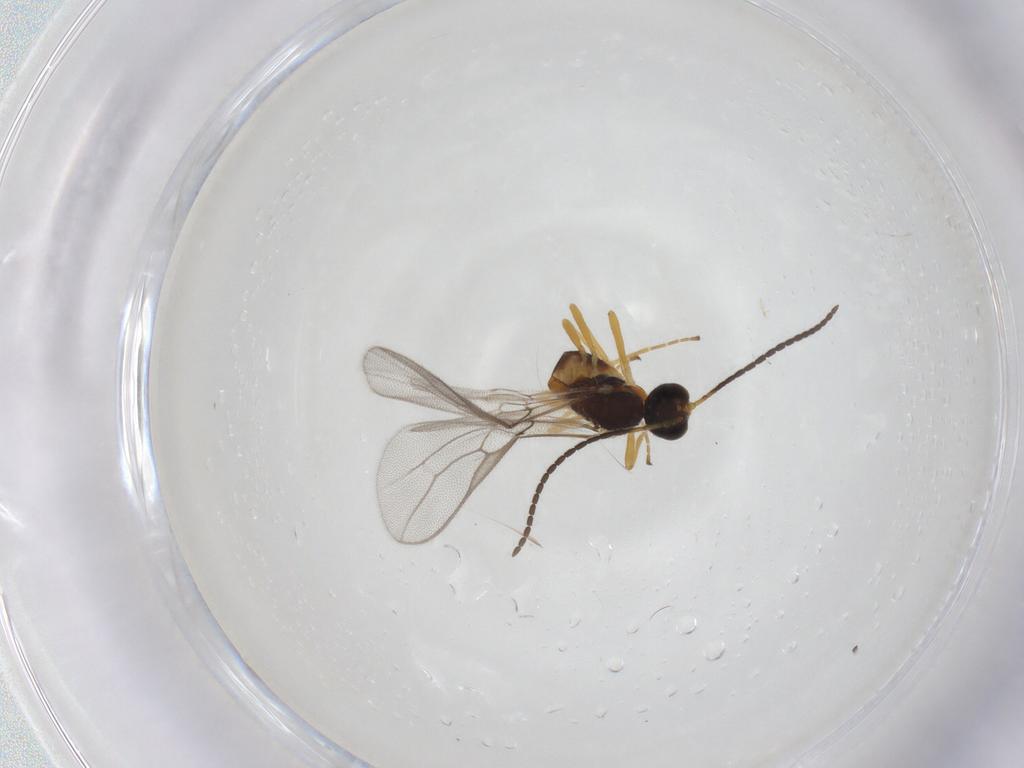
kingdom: Animalia
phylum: Arthropoda
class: Insecta
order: Hymenoptera
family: Braconidae
